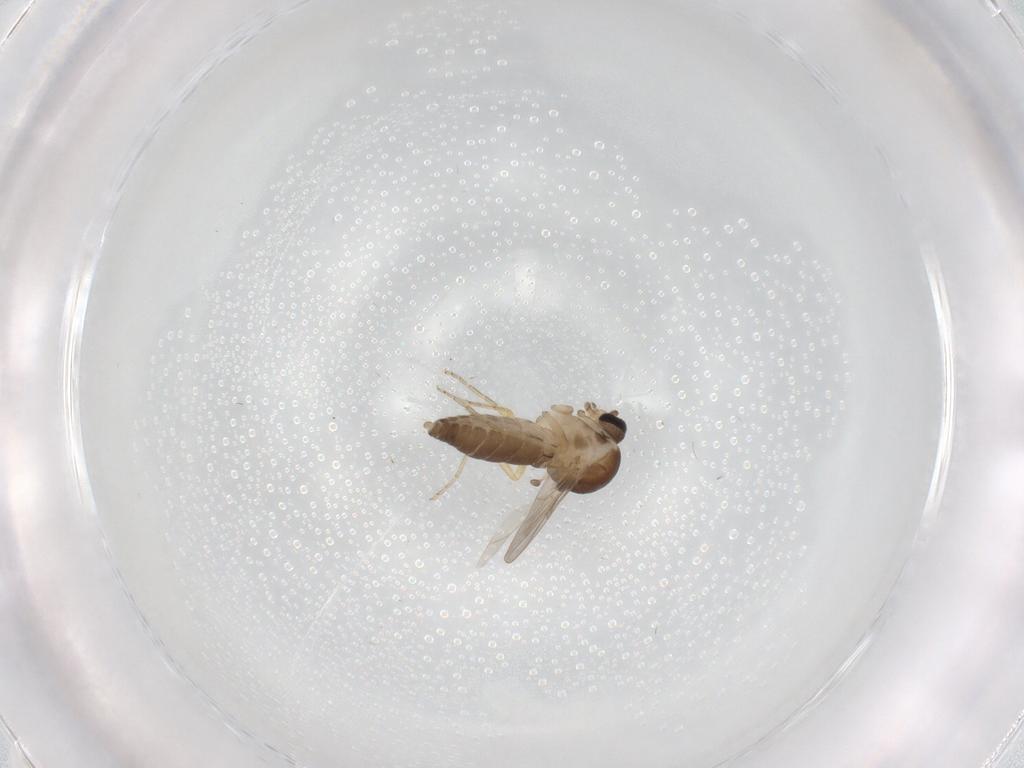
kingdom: Animalia
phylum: Arthropoda
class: Insecta
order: Diptera
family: Ceratopogonidae
